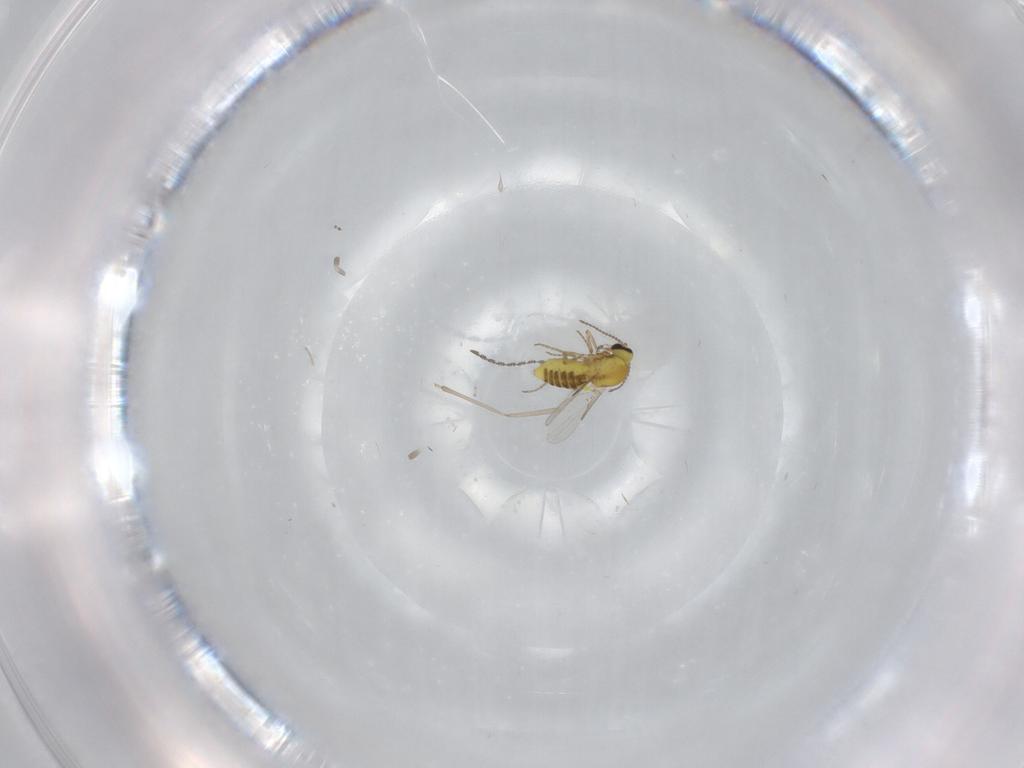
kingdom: Animalia
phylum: Arthropoda
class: Insecta
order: Diptera
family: Ceratopogonidae
